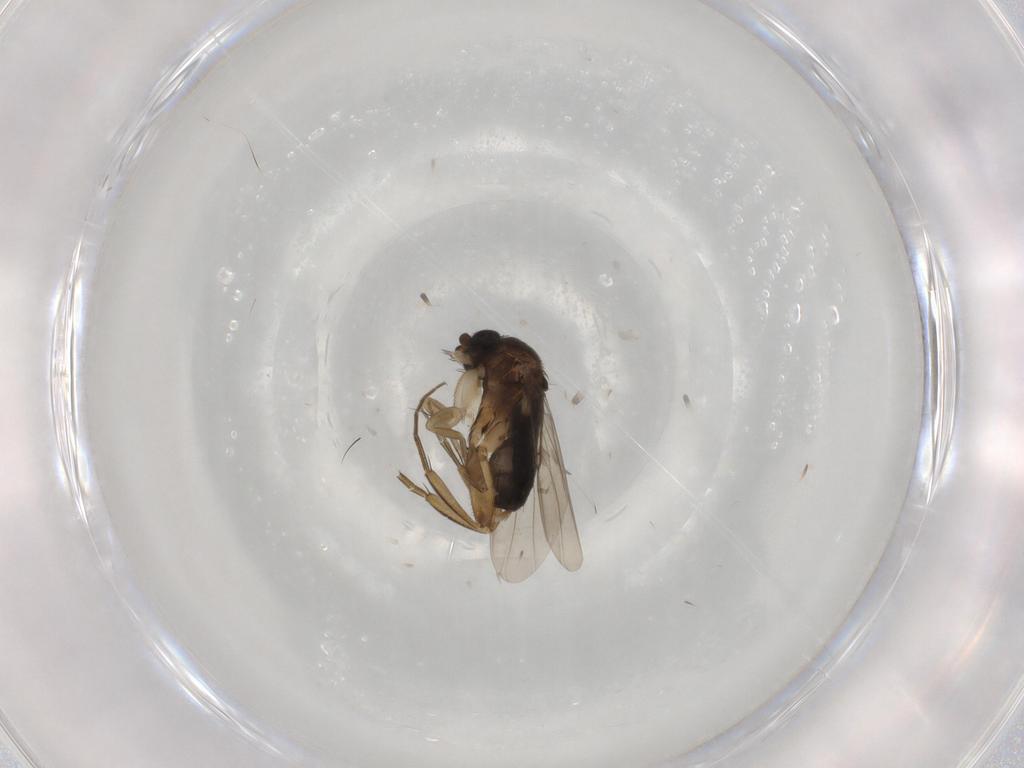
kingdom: Animalia
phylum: Arthropoda
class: Insecta
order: Diptera
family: Phoridae
